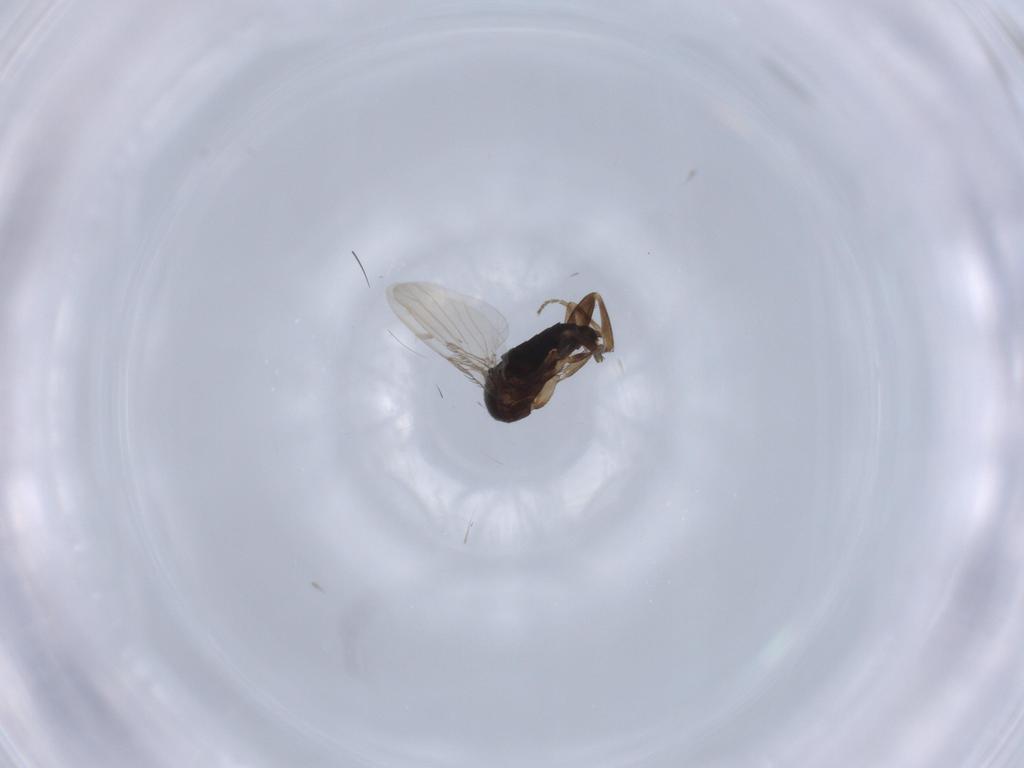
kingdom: Animalia
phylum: Arthropoda
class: Insecta
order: Diptera
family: Phoridae
